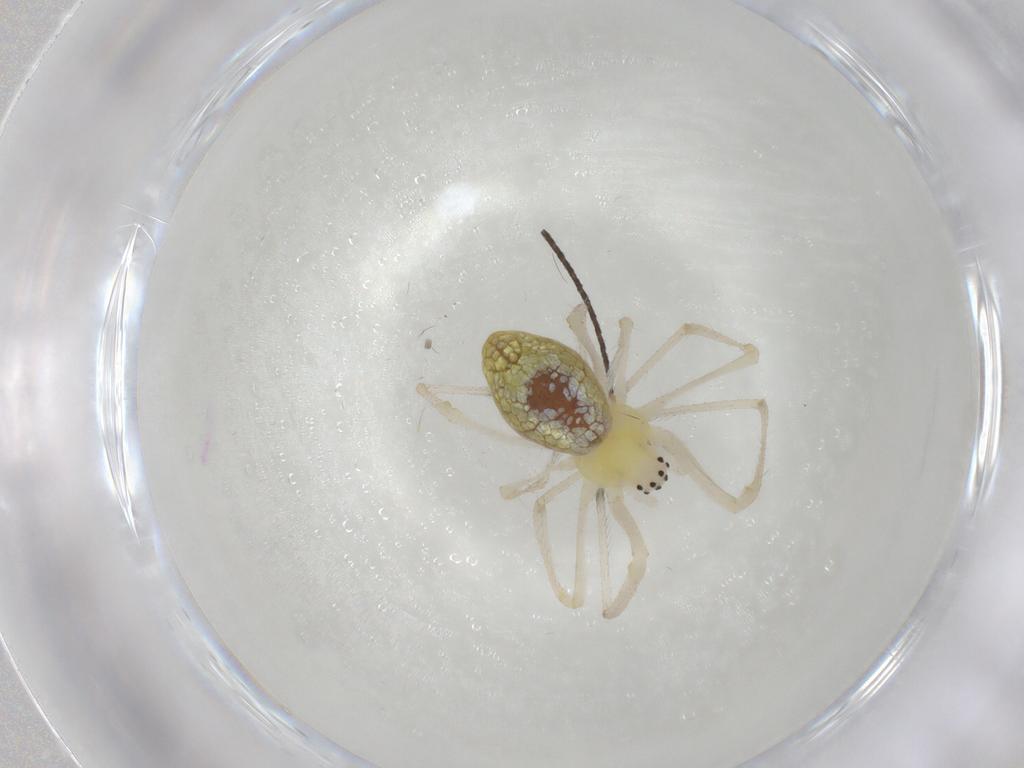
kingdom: Animalia
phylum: Arthropoda
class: Arachnida
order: Araneae
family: Tetragnathidae
